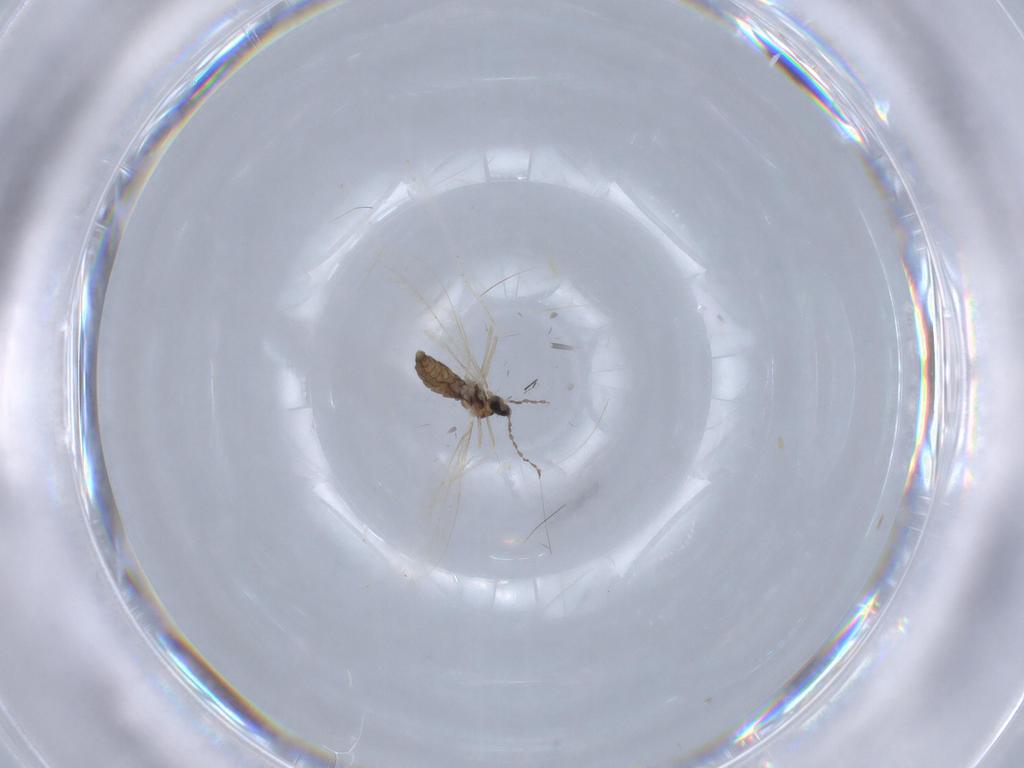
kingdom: Animalia
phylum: Arthropoda
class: Insecta
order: Diptera
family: Ceratopogonidae
